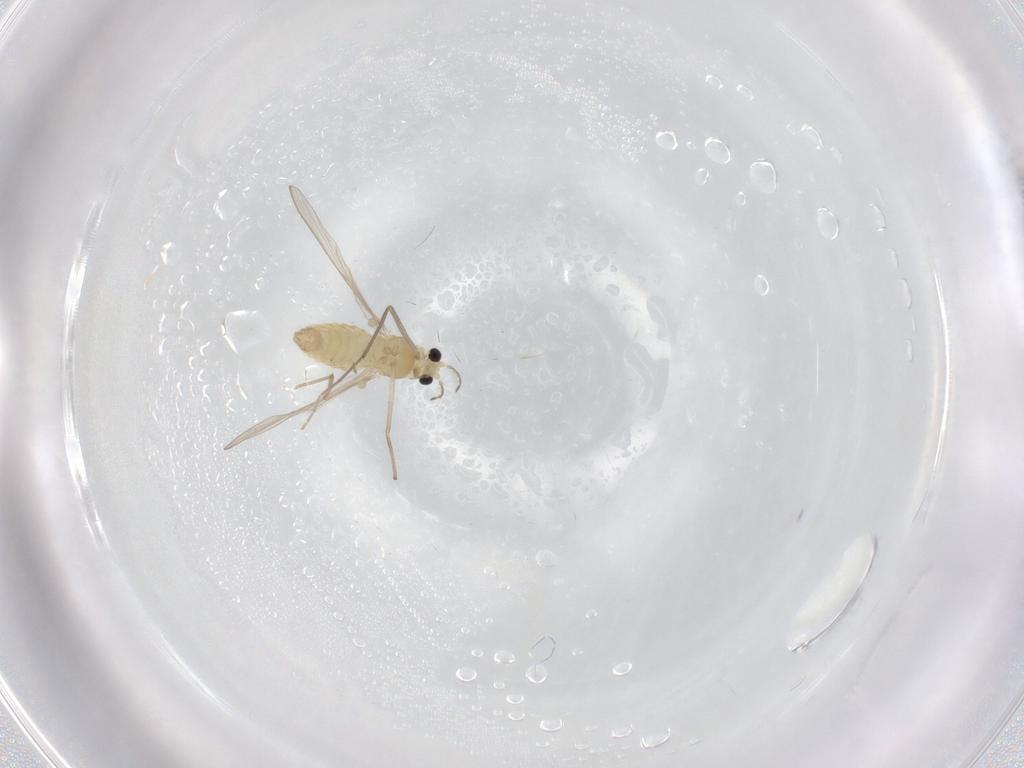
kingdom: Animalia
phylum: Arthropoda
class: Insecta
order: Diptera
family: Chironomidae
